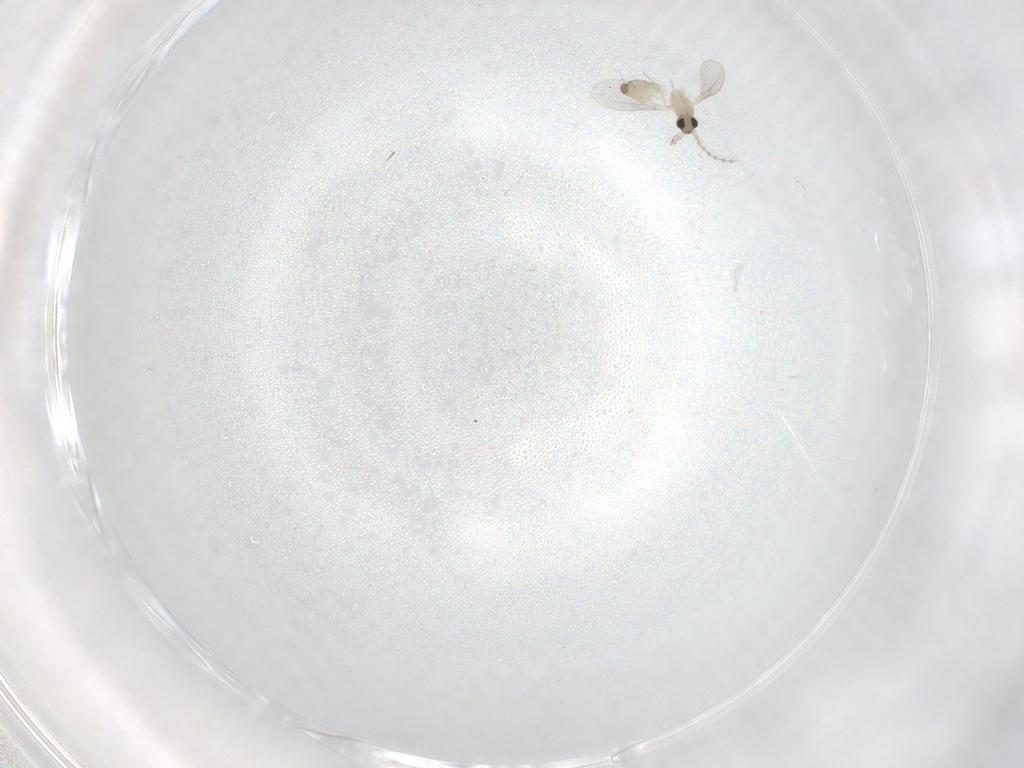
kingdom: Animalia
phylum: Arthropoda
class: Insecta
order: Diptera
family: Cecidomyiidae
